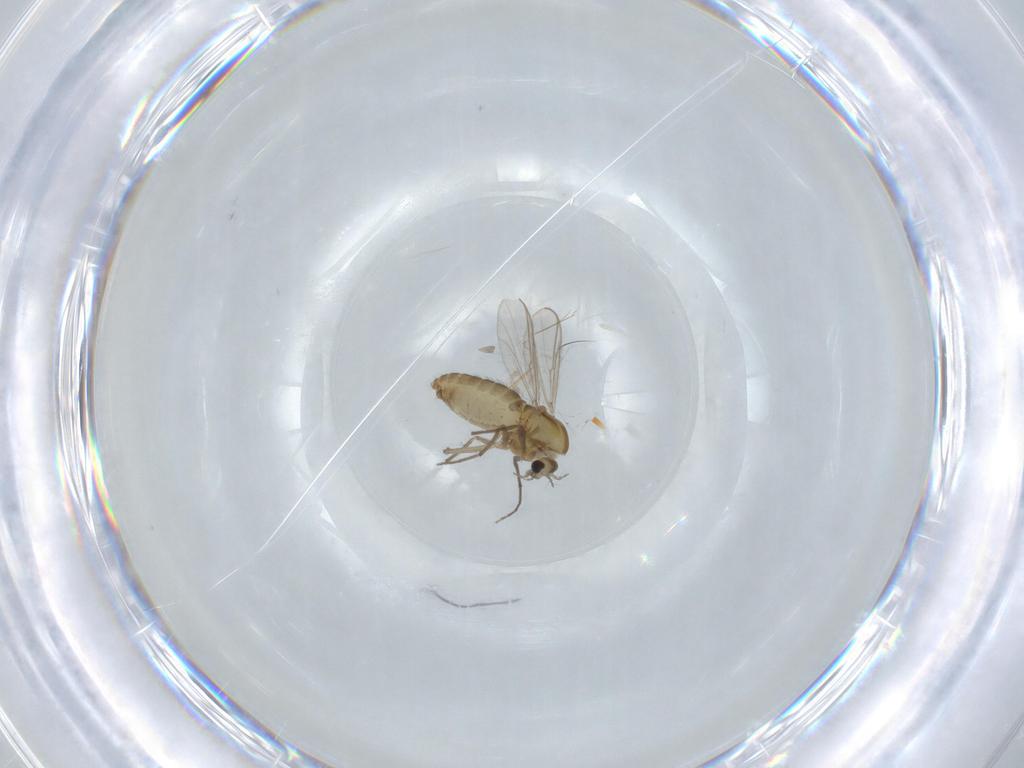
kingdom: Animalia
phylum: Arthropoda
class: Insecta
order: Diptera
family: Chironomidae
